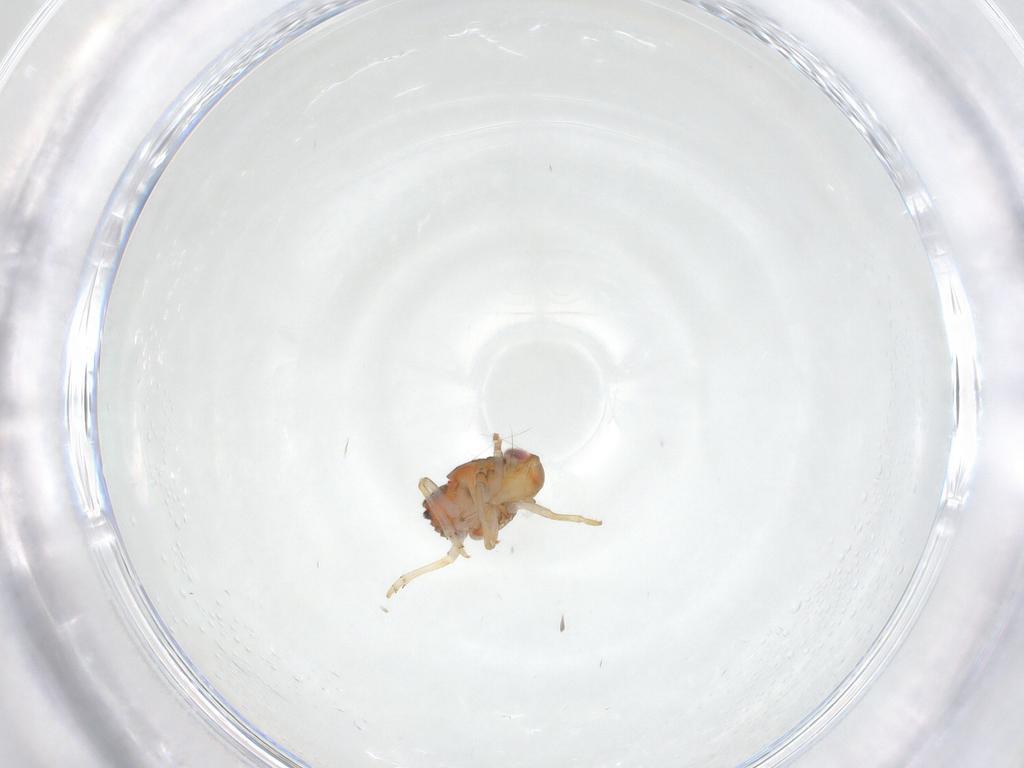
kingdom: Animalia
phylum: Arthropoda
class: Insecta
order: Hemiptera
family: Issidae
